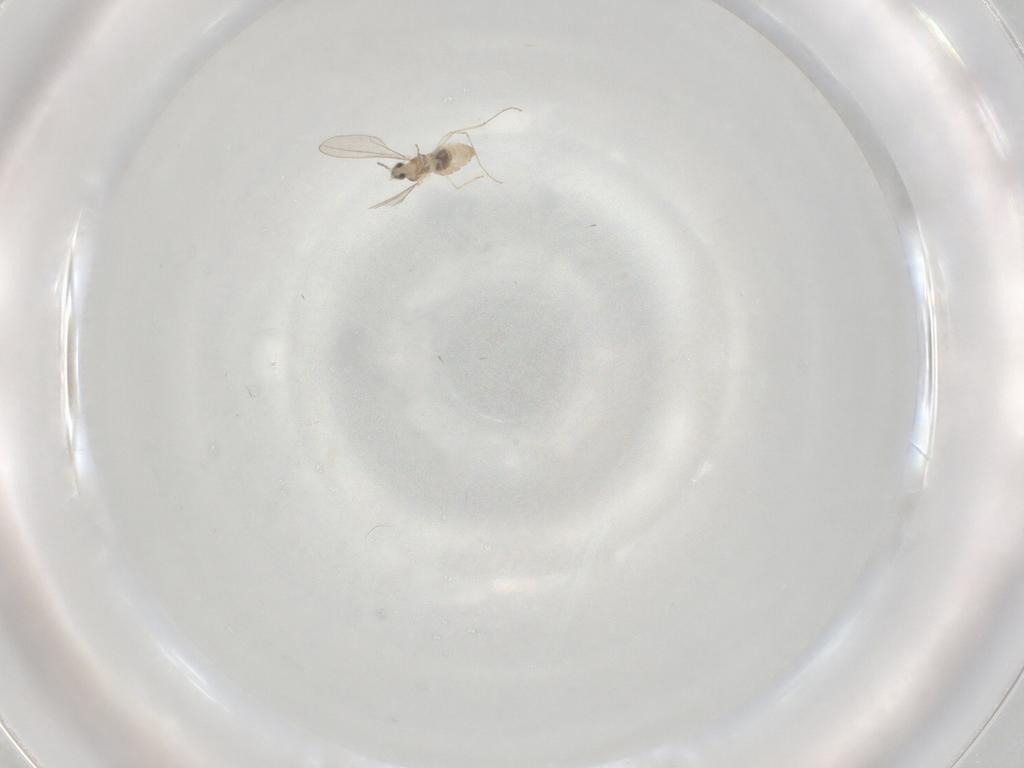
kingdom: Animalia
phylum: Arthropoda
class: Insecta
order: Diptera
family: Cecidomyiidae
